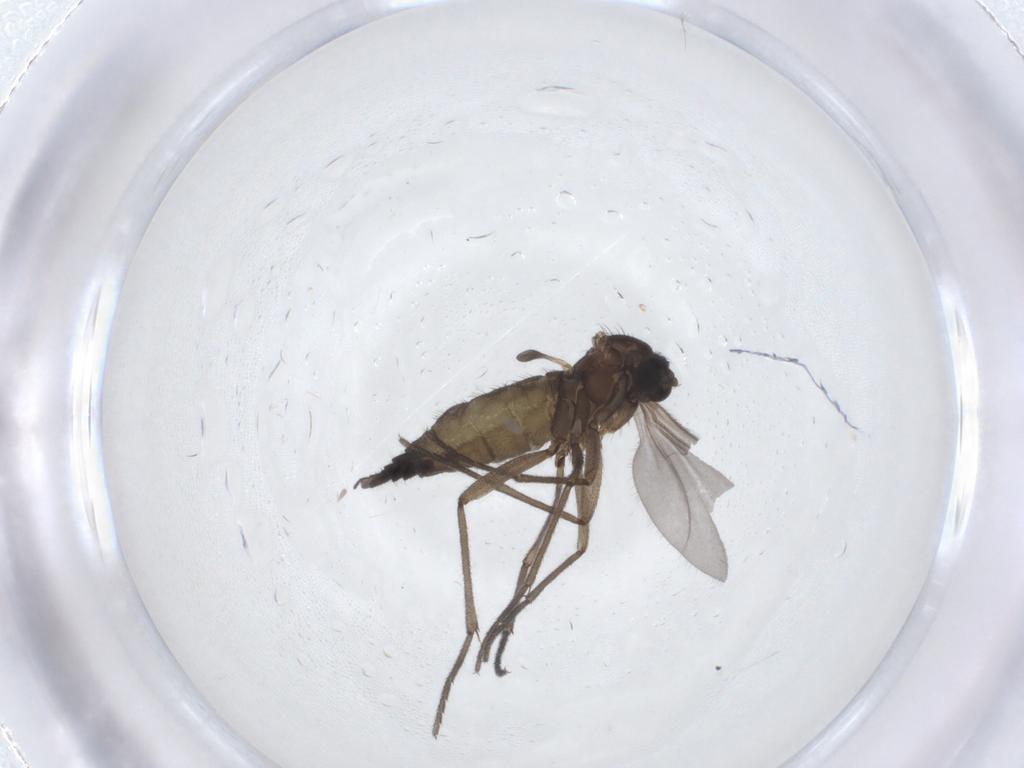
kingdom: Animalia
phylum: Arthropoda
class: Insecta
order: Diptera
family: Sciaridae
